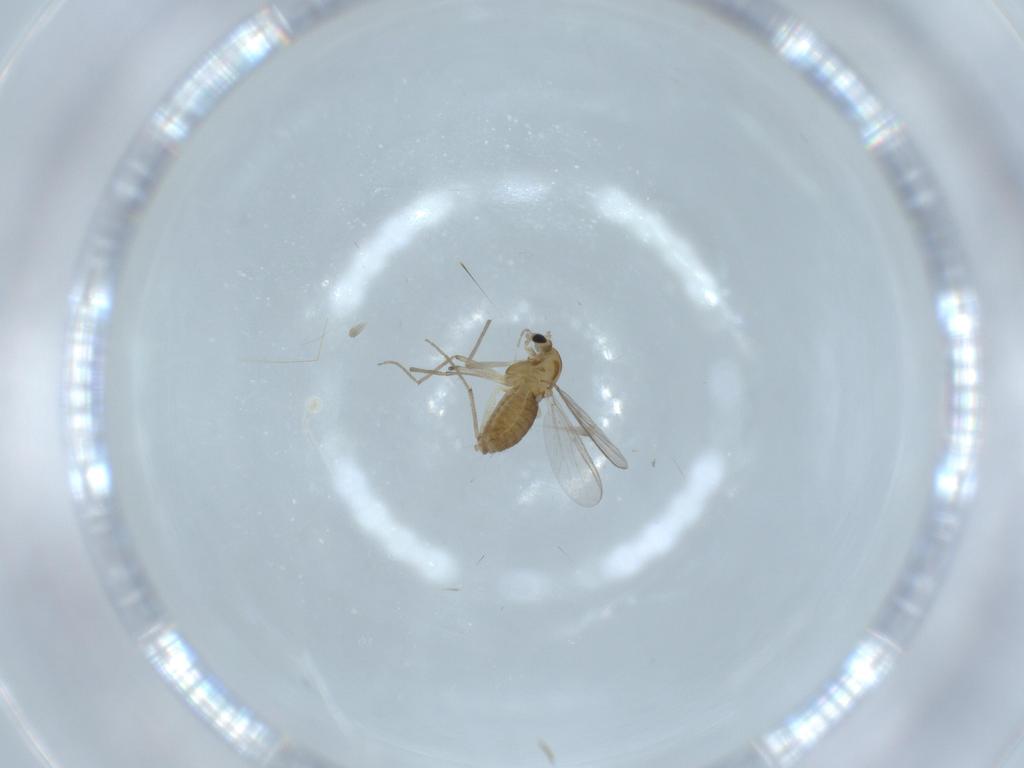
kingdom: Animalia
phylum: Arthropoda
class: Insecta
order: Diptera
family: Chironomidae
